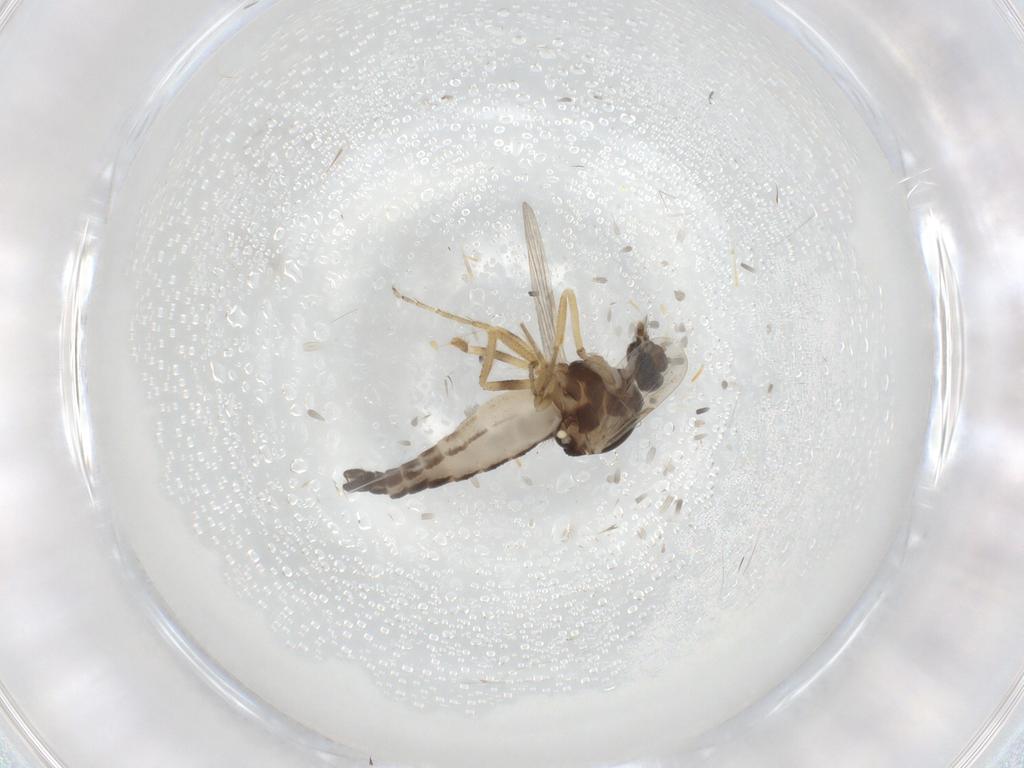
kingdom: Animalia
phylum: Arthropoda
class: Insecta
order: Diptera
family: Ceratopogonidae
